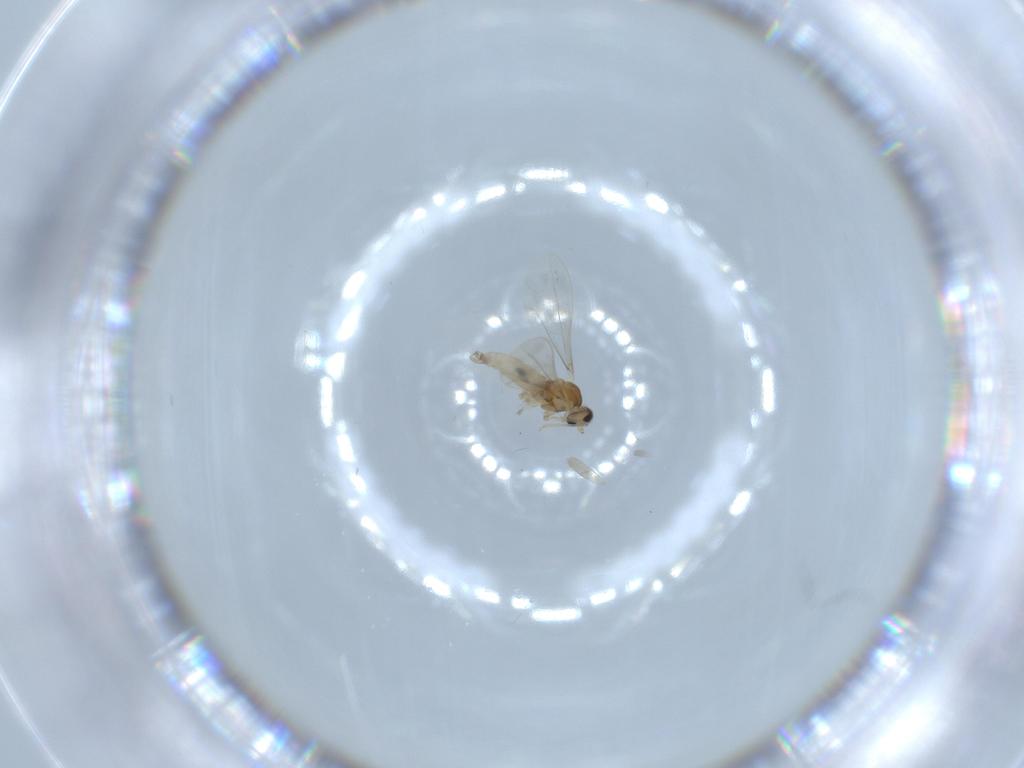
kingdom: Animalia
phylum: Arthropoda
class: Insecta
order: Diptera
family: Cecidomyiidae
